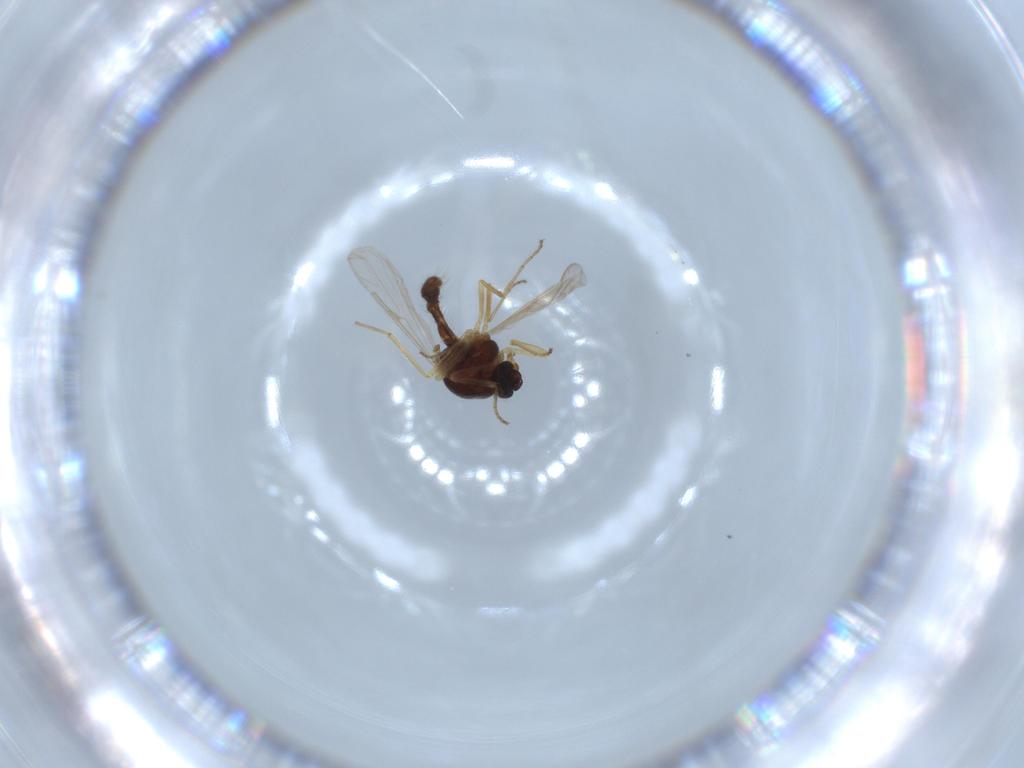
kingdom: Animalia
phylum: Arthropoda
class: Insecta
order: Diptera
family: Ceratopogonidae
